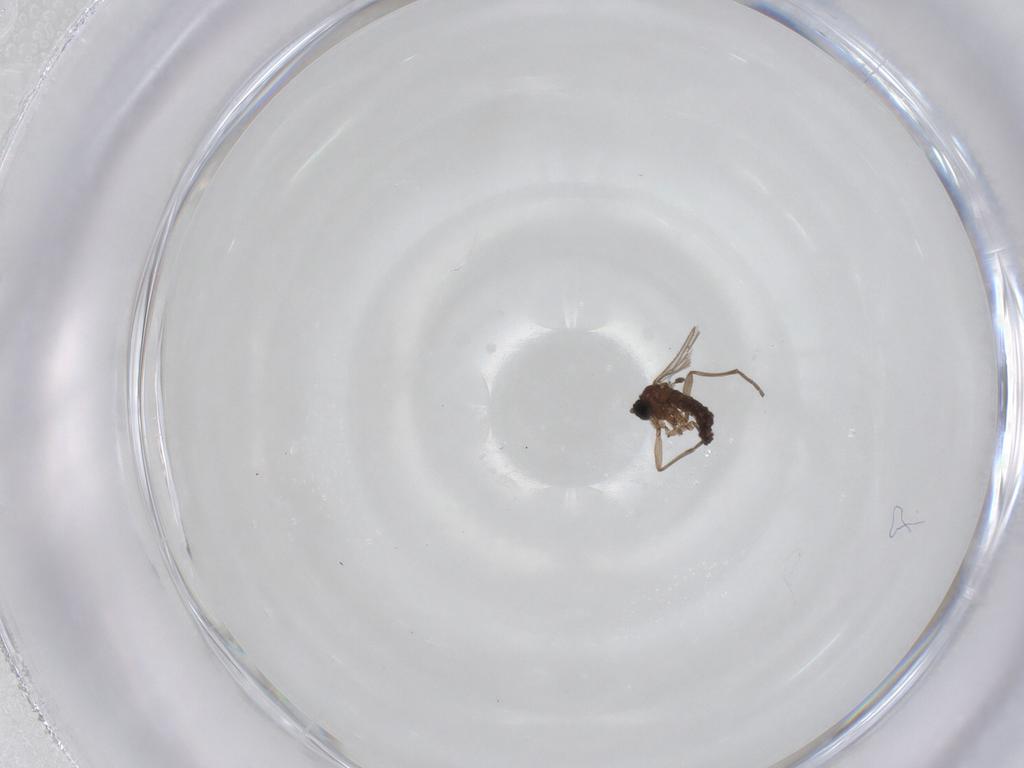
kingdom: Animalia
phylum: Arthropoda
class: Insecta
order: Diptera
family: Sciaridae
